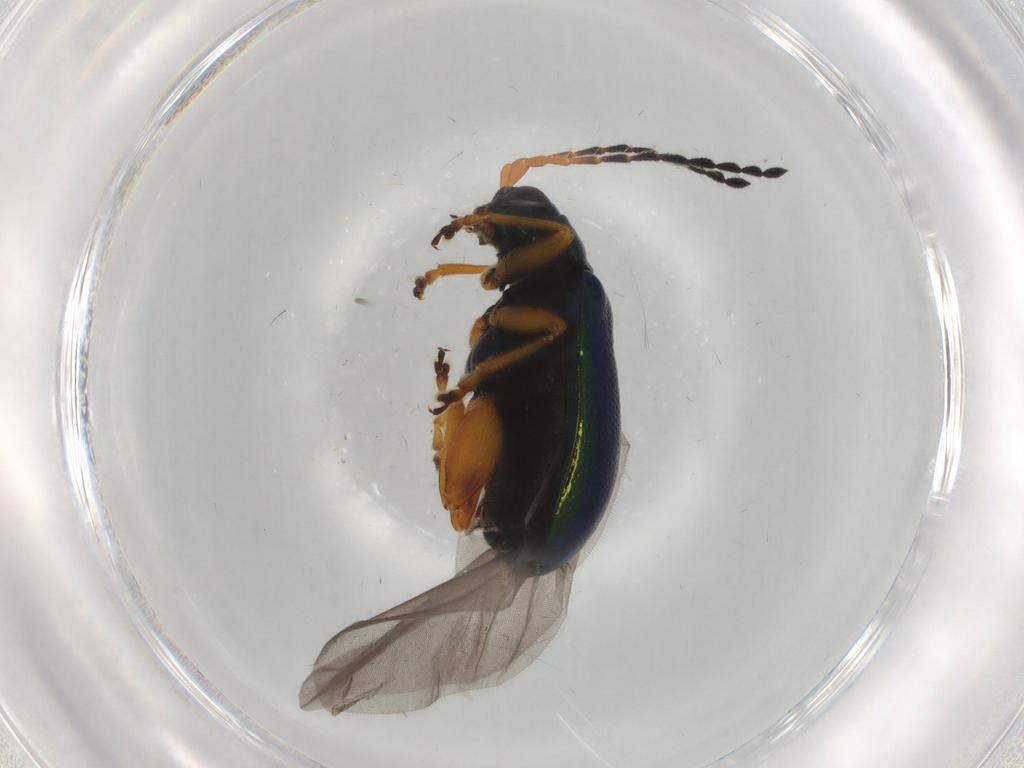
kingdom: Animalia
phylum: Arthropoda
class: Insecta
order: Coleoptera
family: Chrysomelidae
